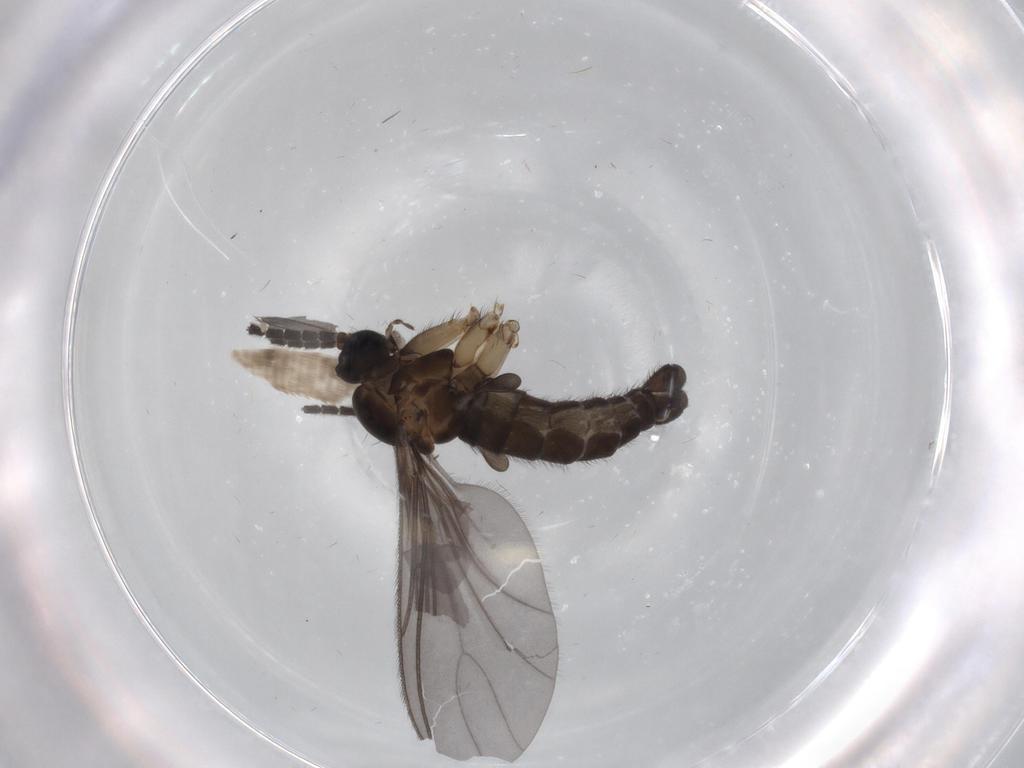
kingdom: Animalia
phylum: Arthropoda
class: Insecta
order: Diptera
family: Sciaridae
